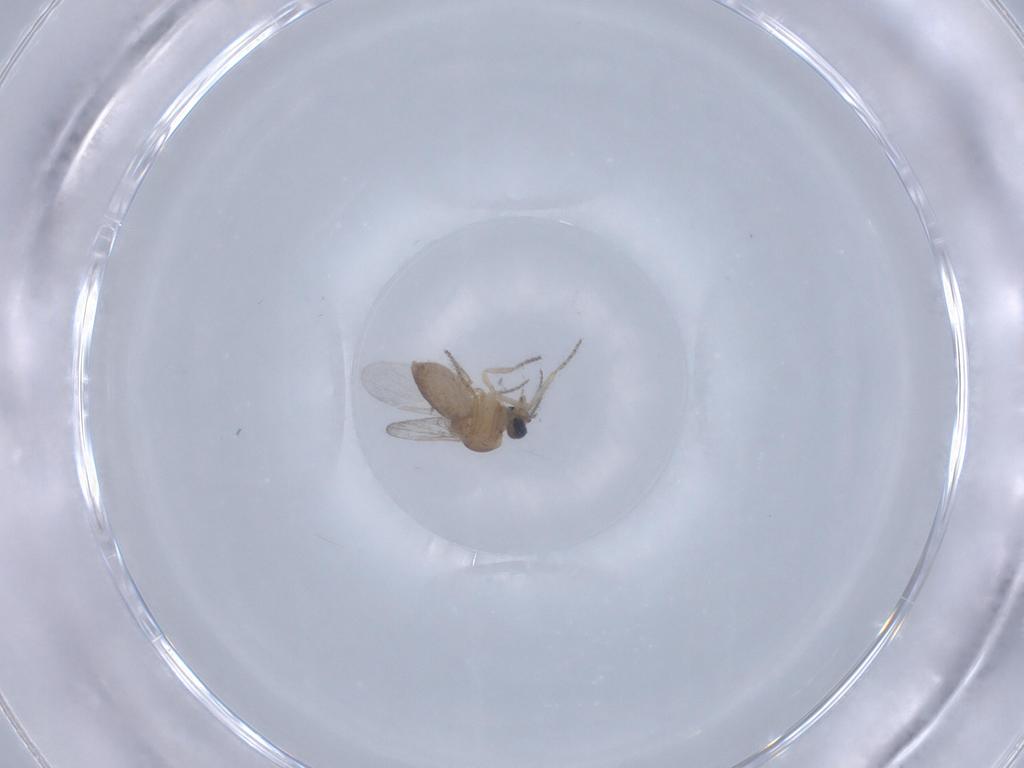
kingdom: Animalia
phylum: Arthropoda
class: Insecta
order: Diptera
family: Ceratopogonidae
